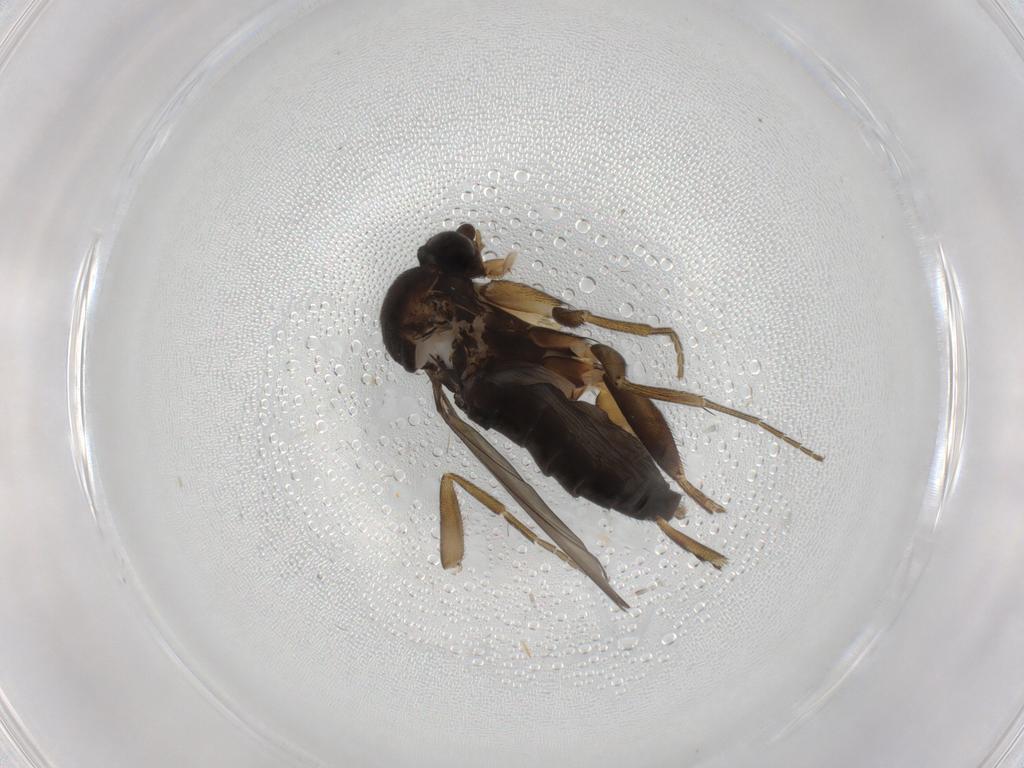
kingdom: Animalia
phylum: Arthropoda
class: Insecta
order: Diptera
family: Phoridae
